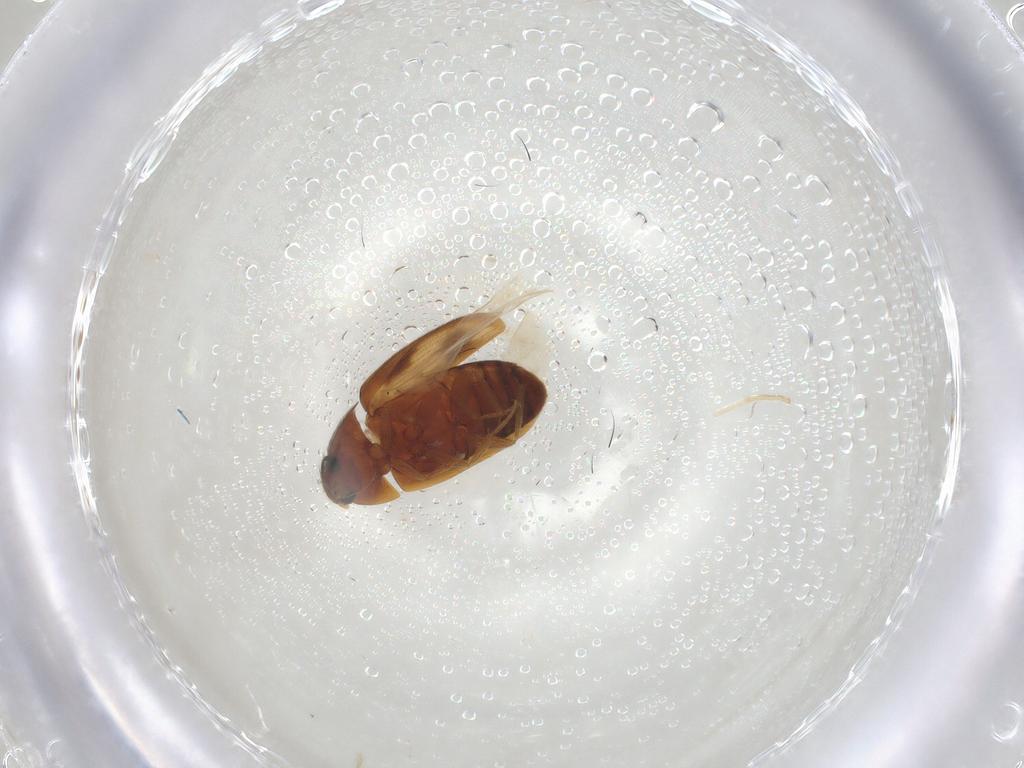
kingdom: Animalia
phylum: Arthropoda
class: Insecta
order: Coleoptera
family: Mycetophagidae
